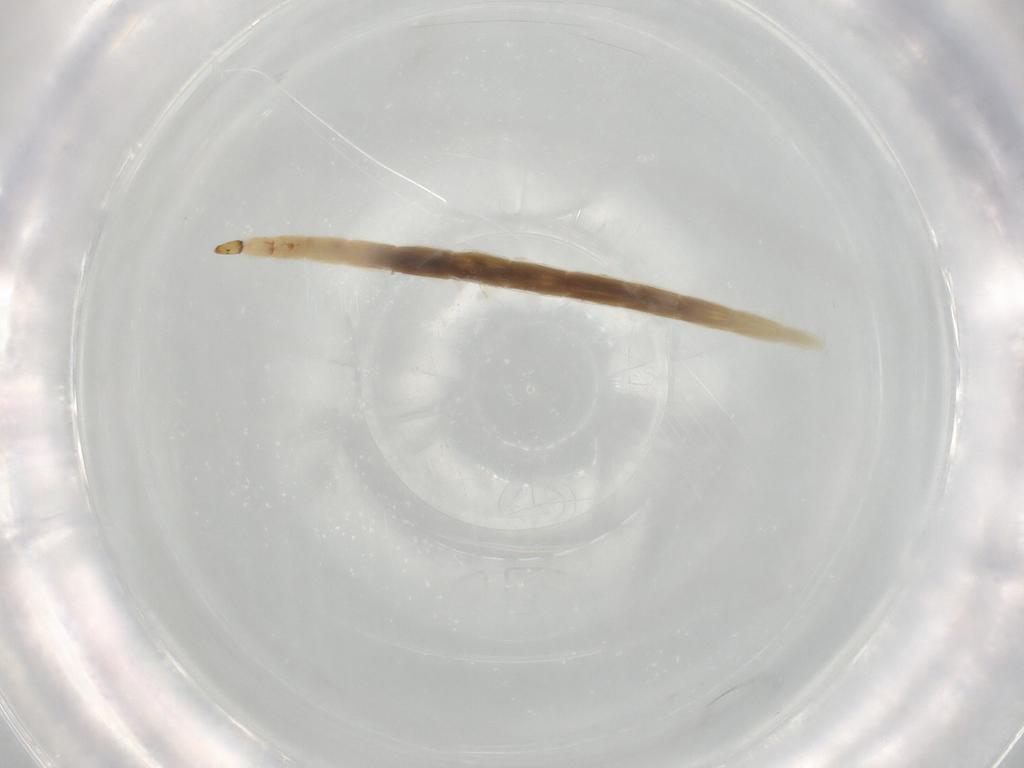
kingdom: Animalia
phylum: Arthropoda
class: Insecta
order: Diptera
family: Ceratopogonidae
